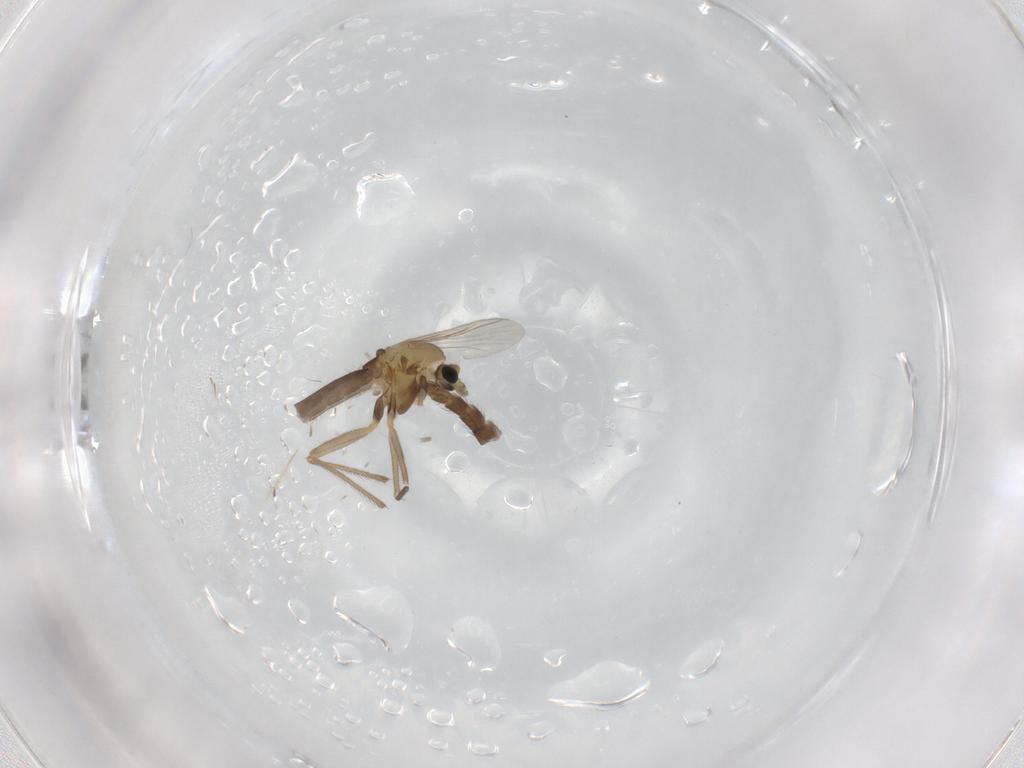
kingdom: Animalia
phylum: Arthropoda
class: Insecta
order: Diptera
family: Chironomidae
